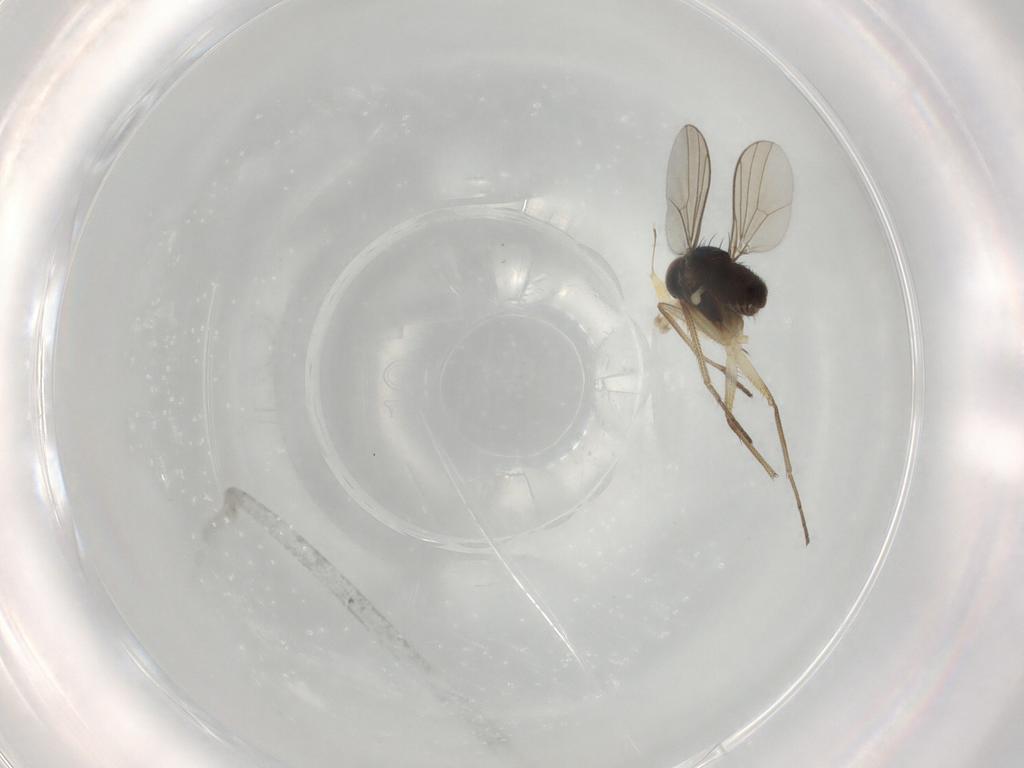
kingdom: Animalia
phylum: Arthropoda
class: Insecta
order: Diptera
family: Dolichopodidae
